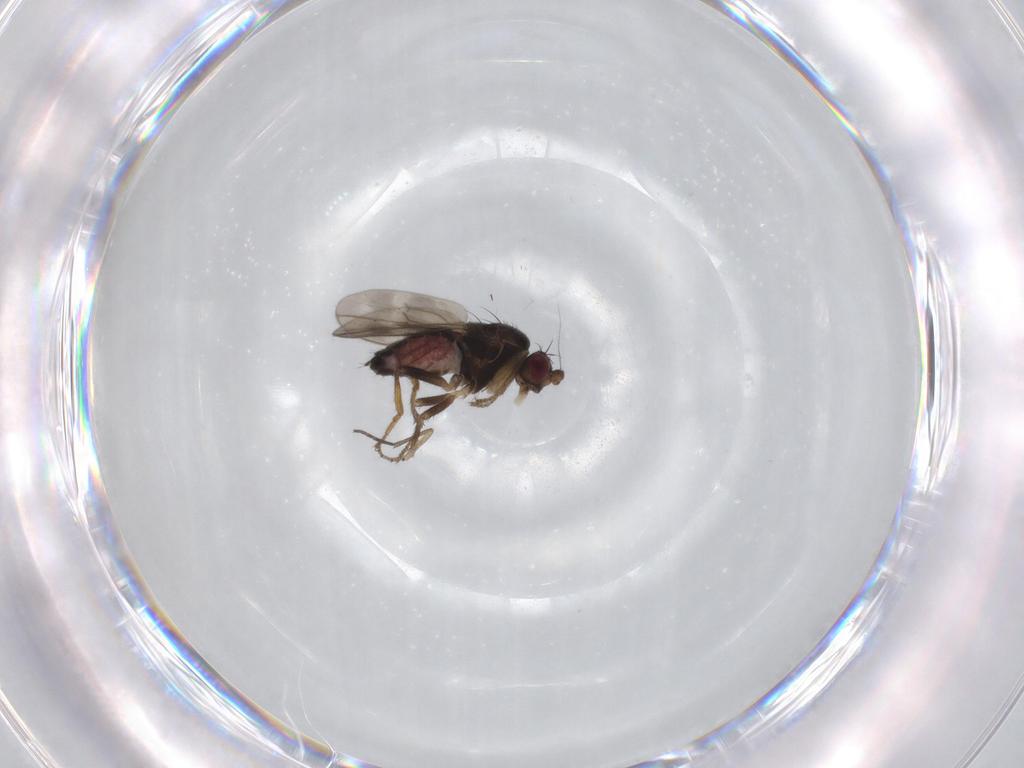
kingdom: Animalia
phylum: Arthropoda
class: Insecta
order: Diptera
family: Sphaeroceridae
